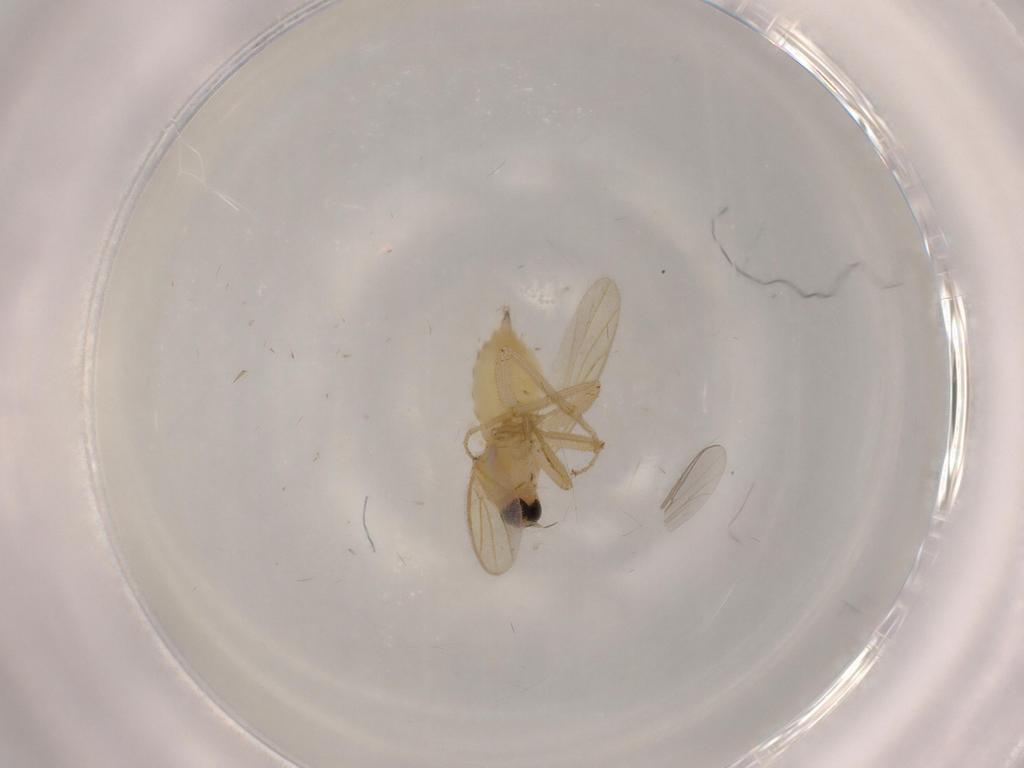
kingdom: Animalia
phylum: Arthropoda
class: Insecta
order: Diptera
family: Hybotidae
